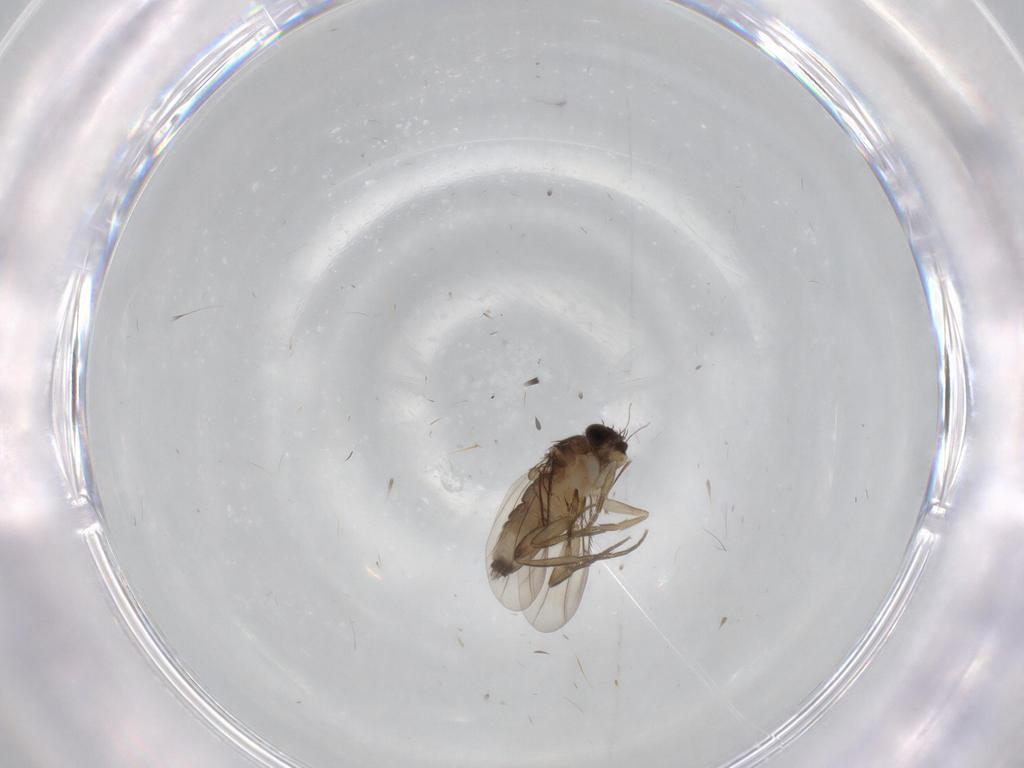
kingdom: Animalia
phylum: Arthropoda
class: Insecta
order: Diptera
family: Phoridae
